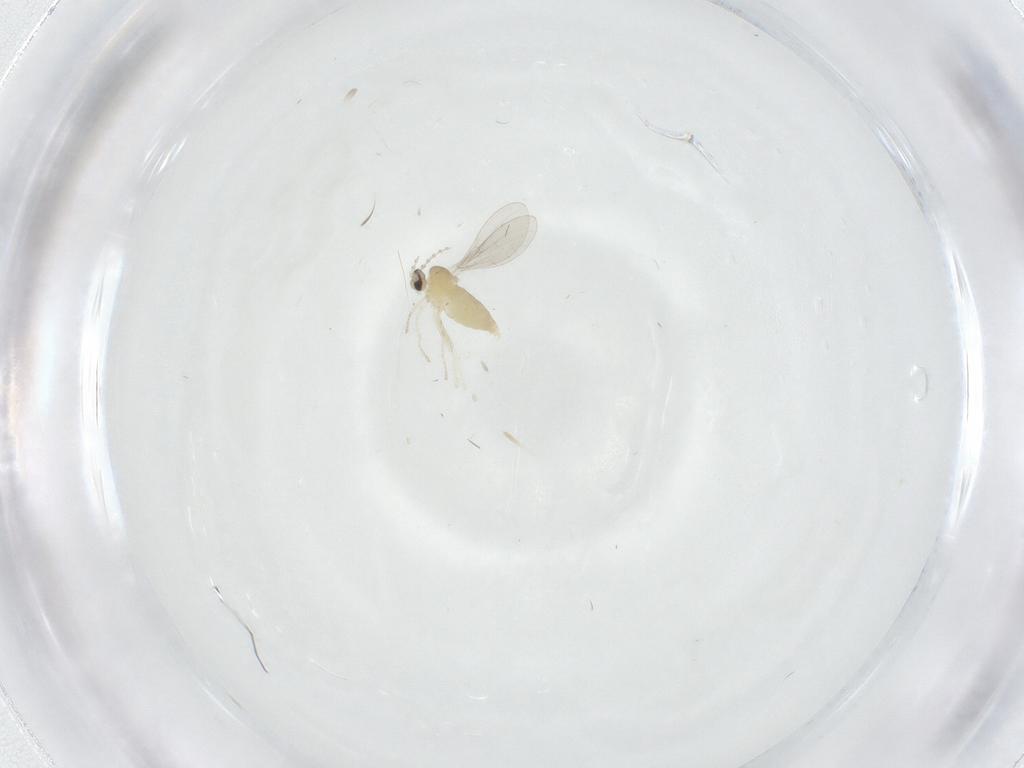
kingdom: Animalia
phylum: Arthropoda
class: Insecta
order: Diptera
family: Cecidomyiidae
